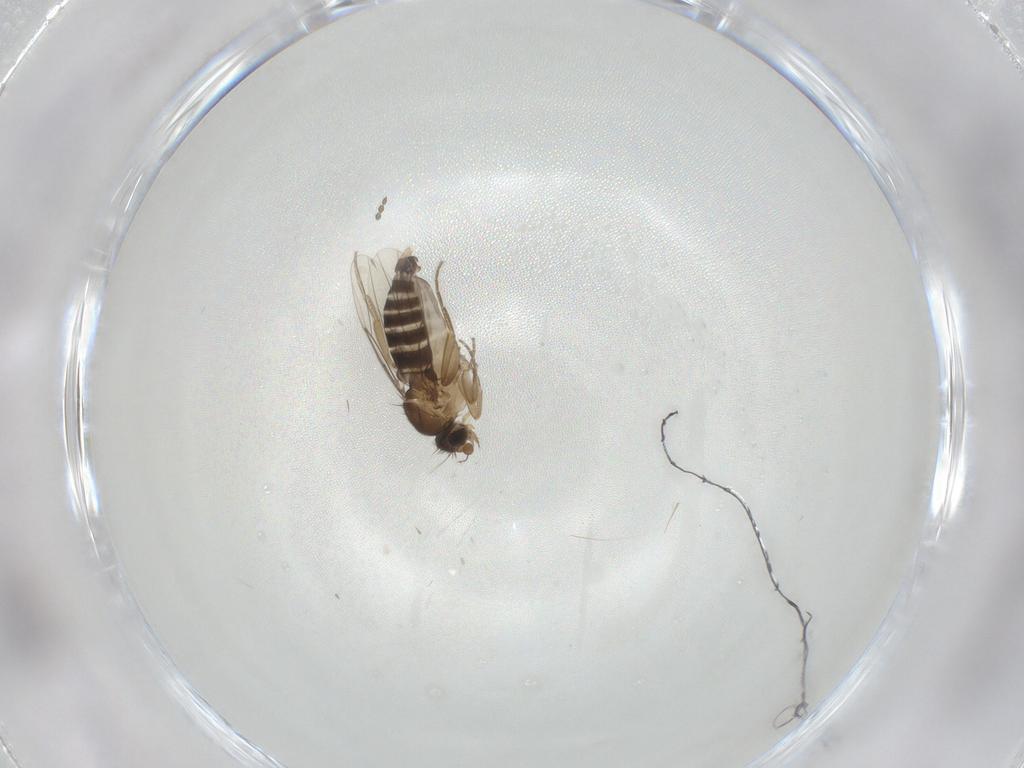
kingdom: Animalia
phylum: Arthropoda
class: Insecta
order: Diptera
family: Phoridae
